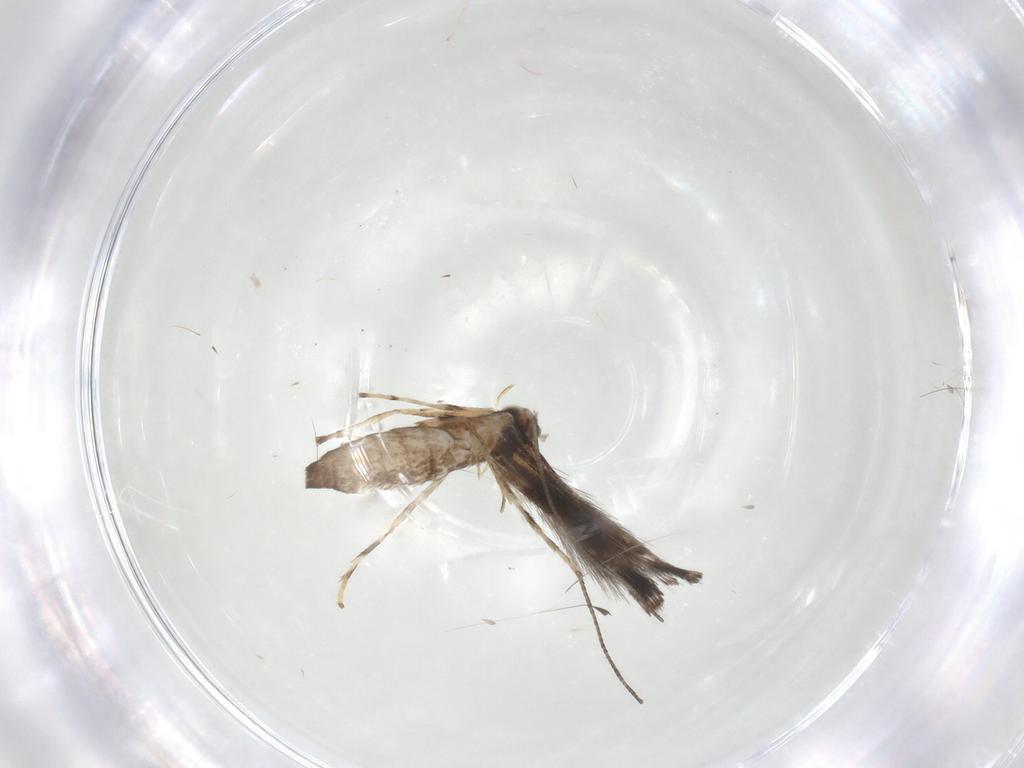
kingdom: Animalia
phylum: Arthropoda
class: Insecta
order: Lepidoptera
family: Gracillariidae
